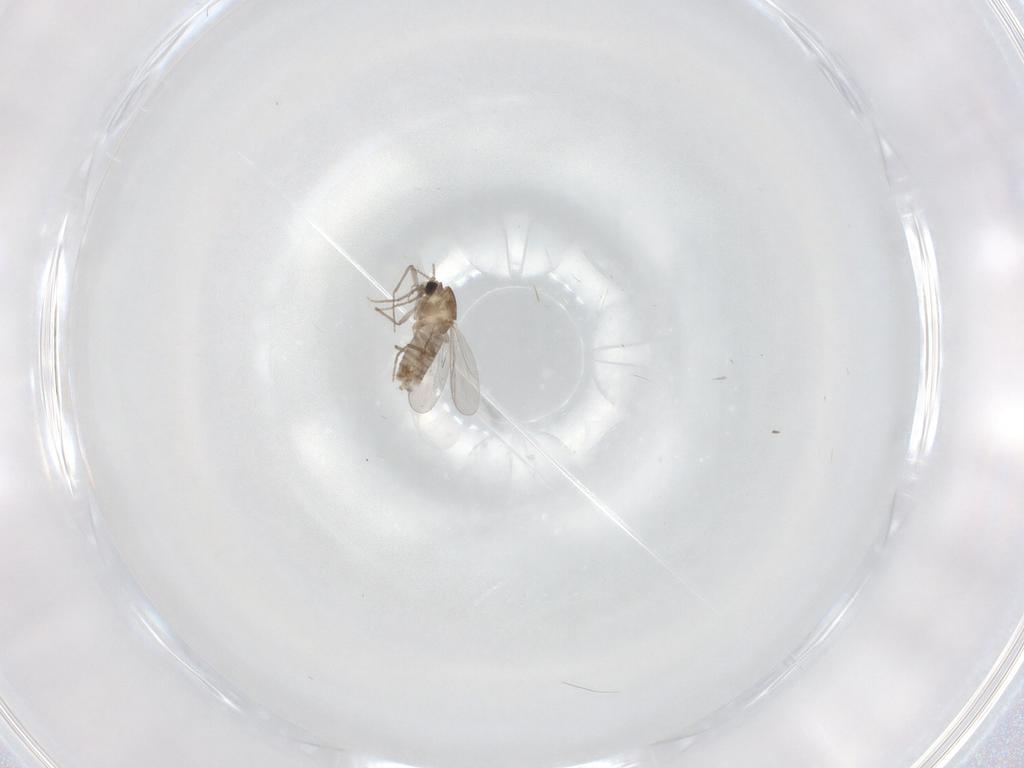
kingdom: Animalia
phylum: Arthropoda
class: Insecta
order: Diptera
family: Chironomidae
